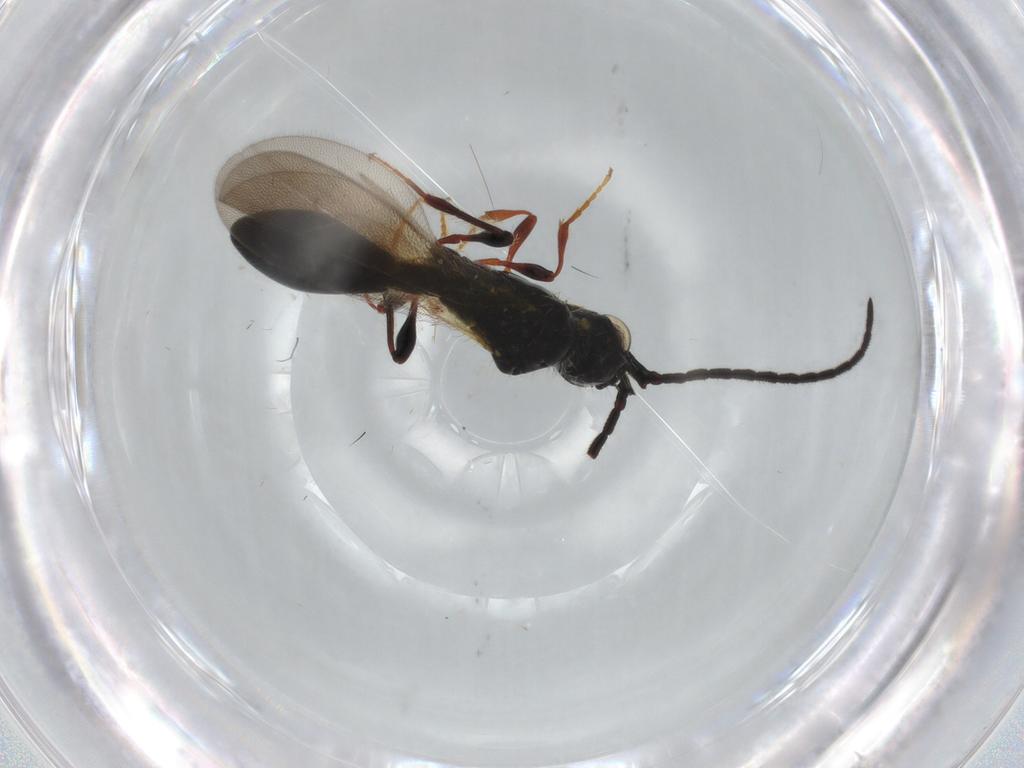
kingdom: Animalia
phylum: Arthropoda
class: Insecta
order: Hymenoptera
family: Diapriidae
